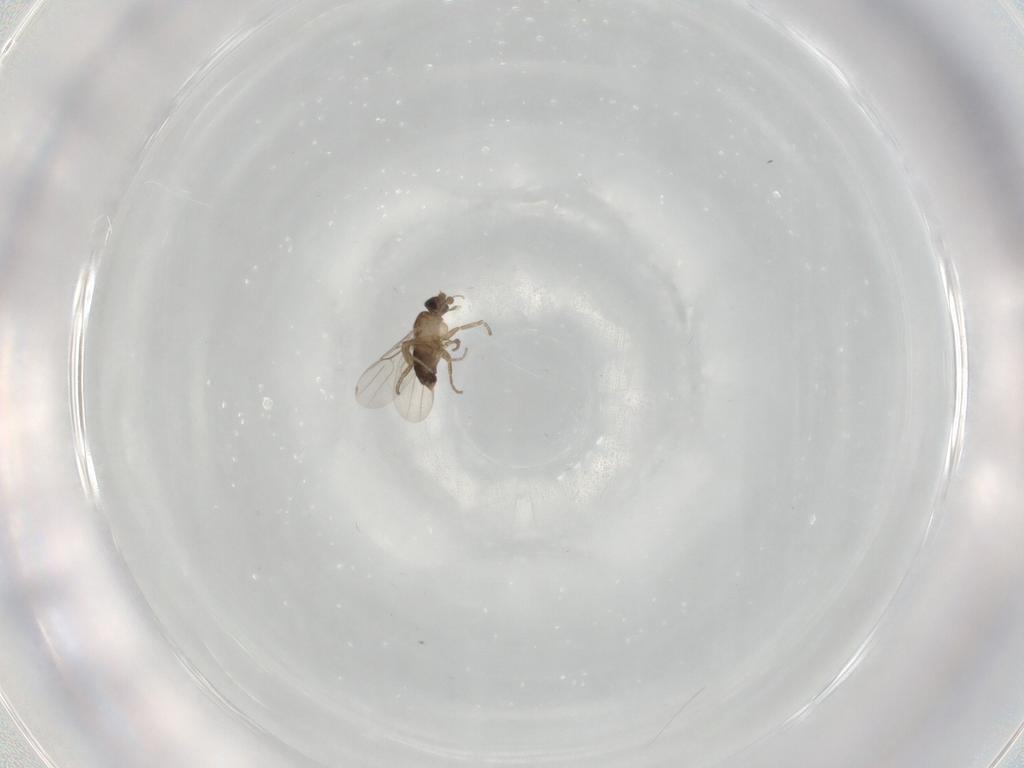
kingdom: Animalia
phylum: Arthropoda
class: Insecta
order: Diptera
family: Phoridae
